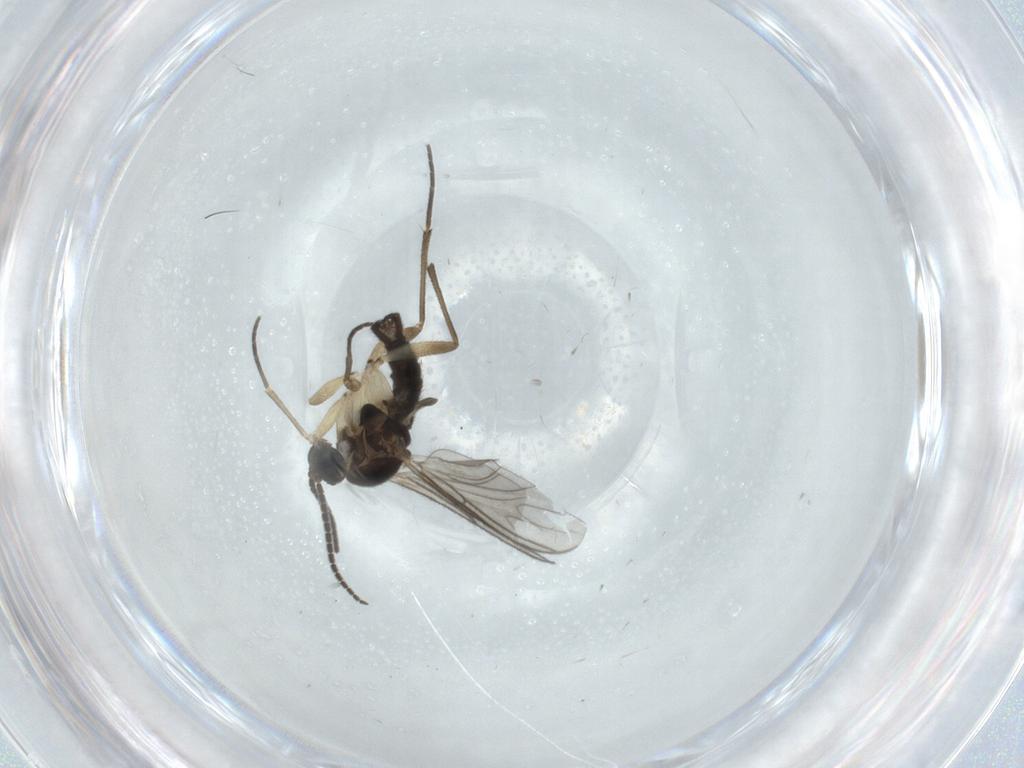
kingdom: Animalia
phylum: Arthropoda
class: Insecta
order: Diptera
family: Sciaridae
